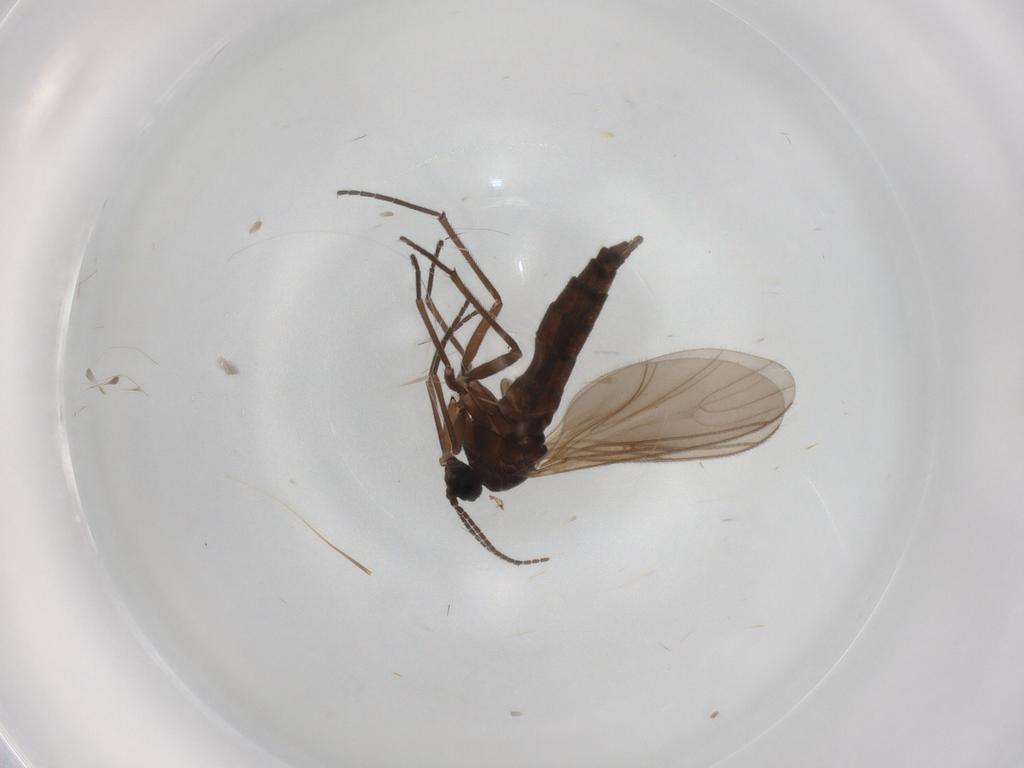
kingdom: Animalia
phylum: Arthropoda
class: Insecta
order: Diptera
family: Sciaridae
